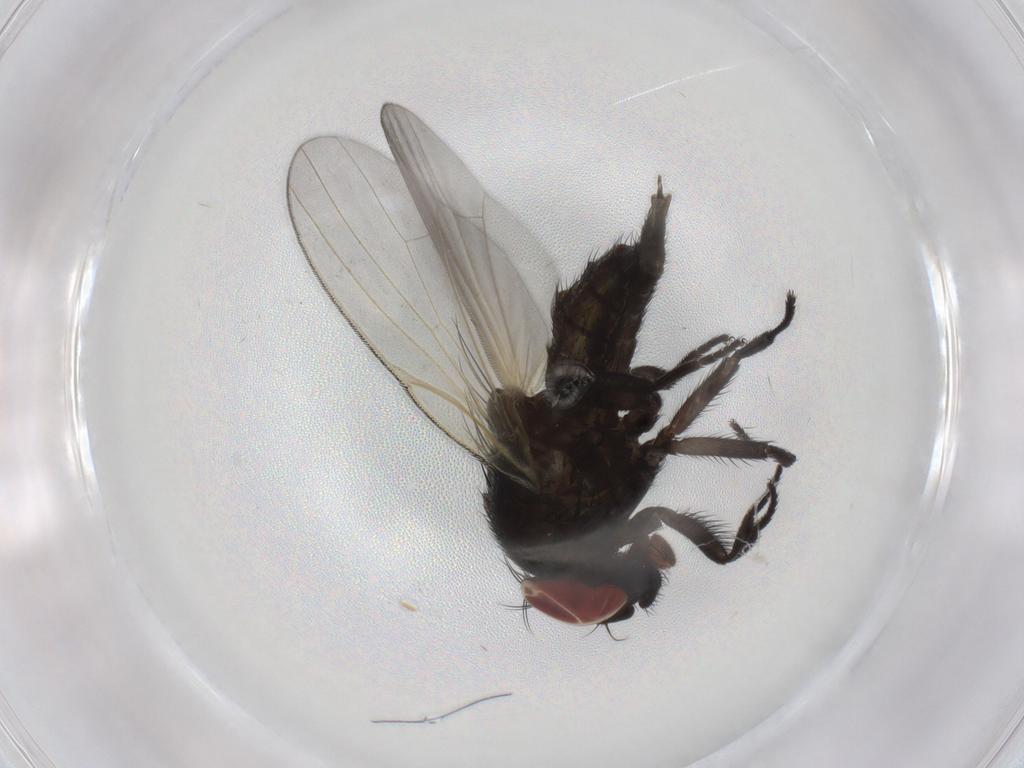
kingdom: Animalia
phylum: Arthropoda
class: Insecta
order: Diptera
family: Lonchaeidae
